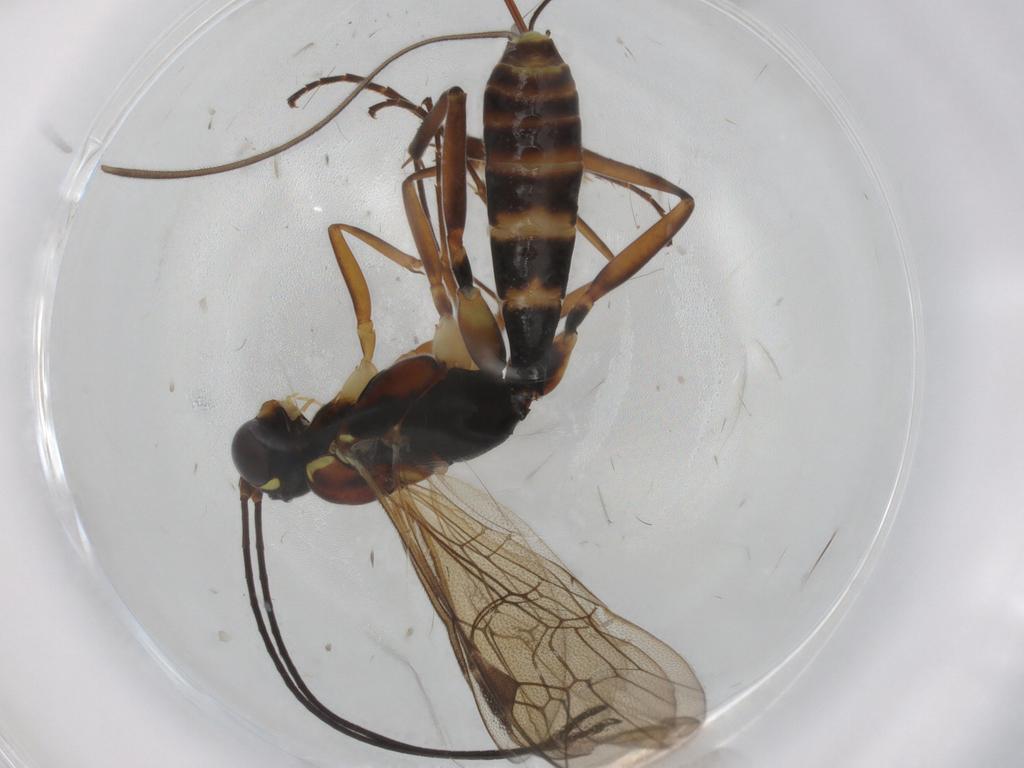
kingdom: Animalia
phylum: Arthropoda
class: Insecta
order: Hymenoptera
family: Ichneumonidae
